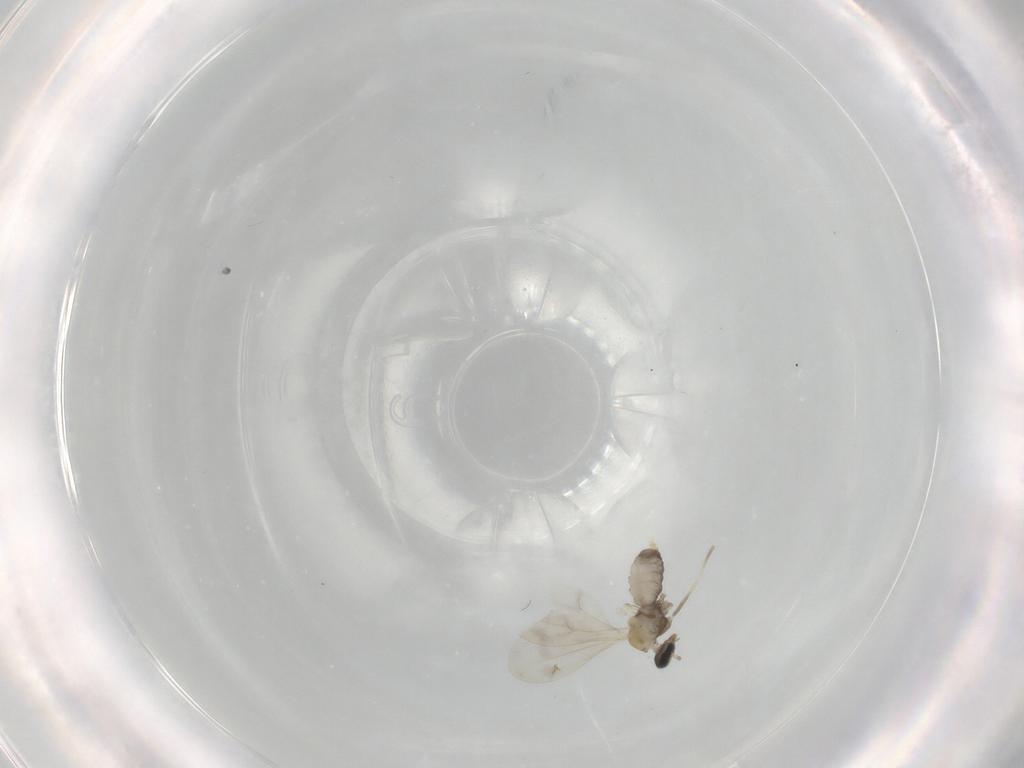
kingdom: Animalia
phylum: Arthropoda
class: Insecta
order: Diptera
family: Cecidomyiidae
